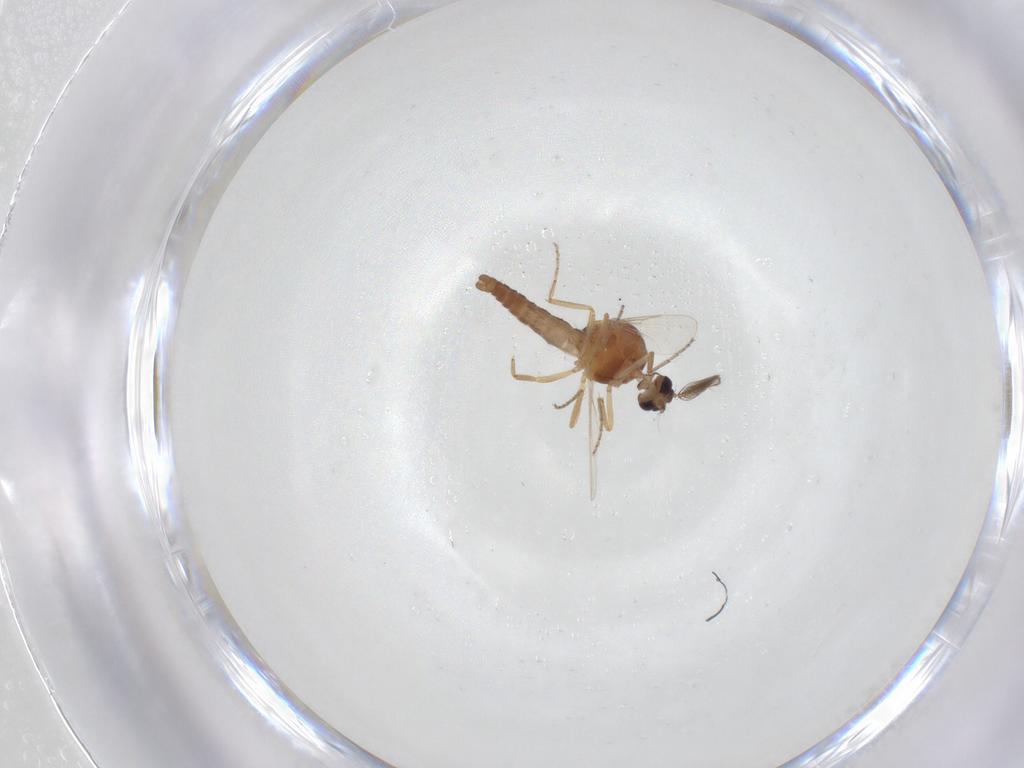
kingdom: Animalia
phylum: Arthropoda
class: Insecta
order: Diptera
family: Ceratopogonidae
